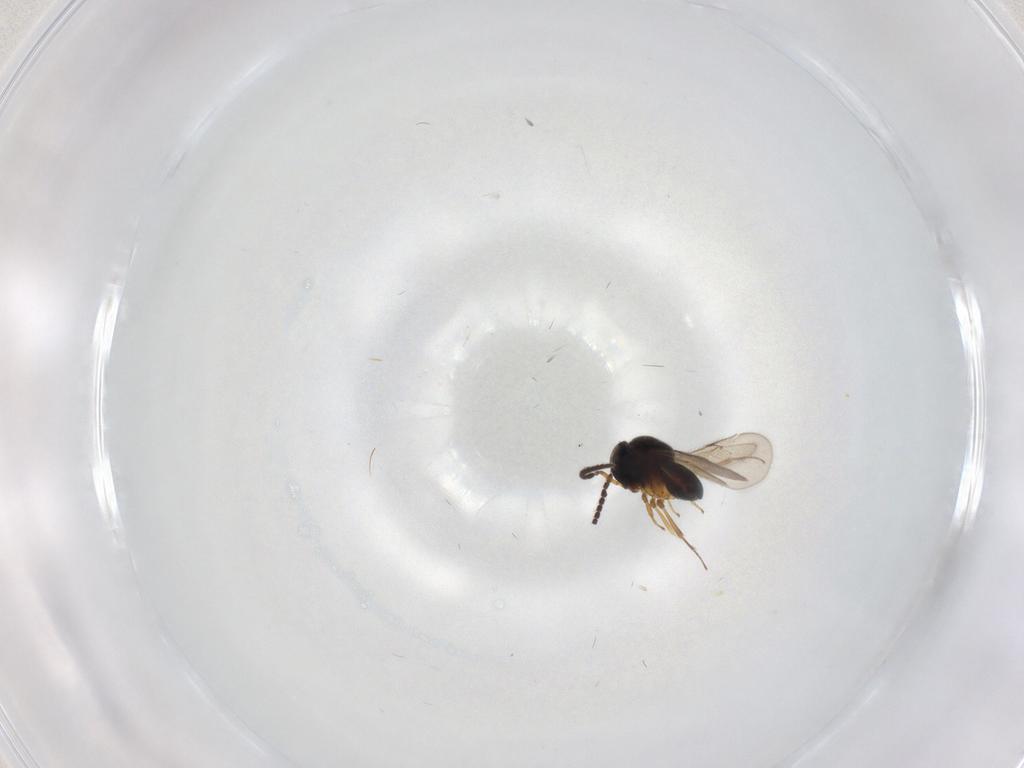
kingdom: Animalia
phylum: Arthropoda
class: Insecta
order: Hymenoptera
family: Scelionidae
